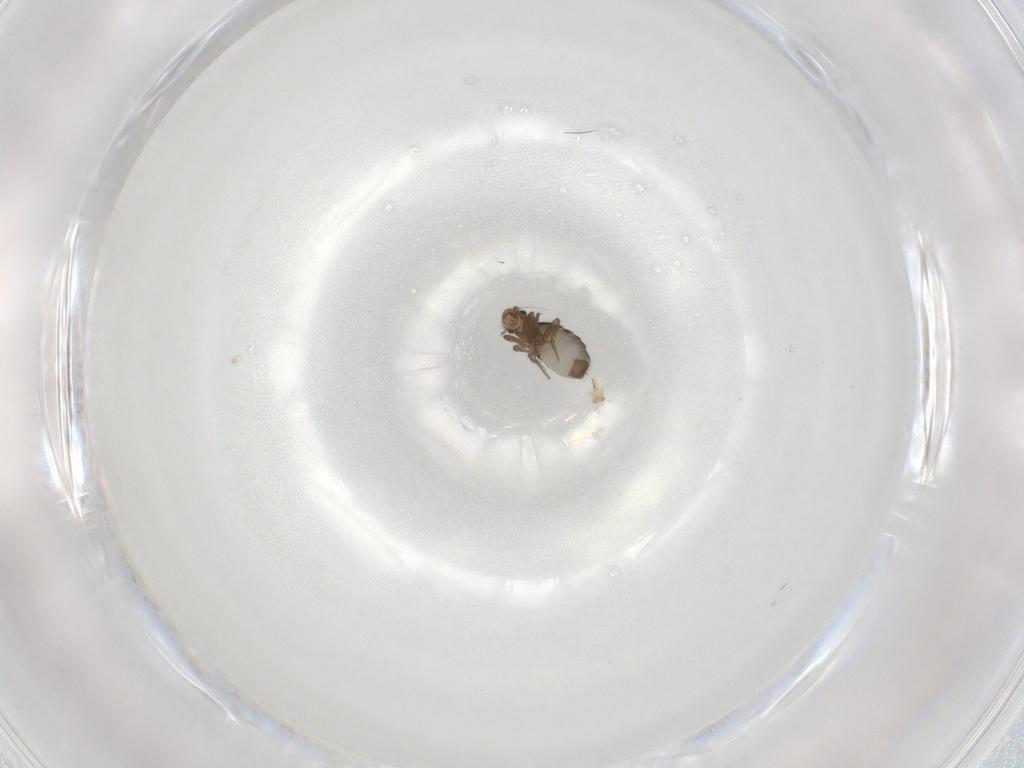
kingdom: Animalia
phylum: Arthropoda
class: Insecta
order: Diptera
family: Phoridae
